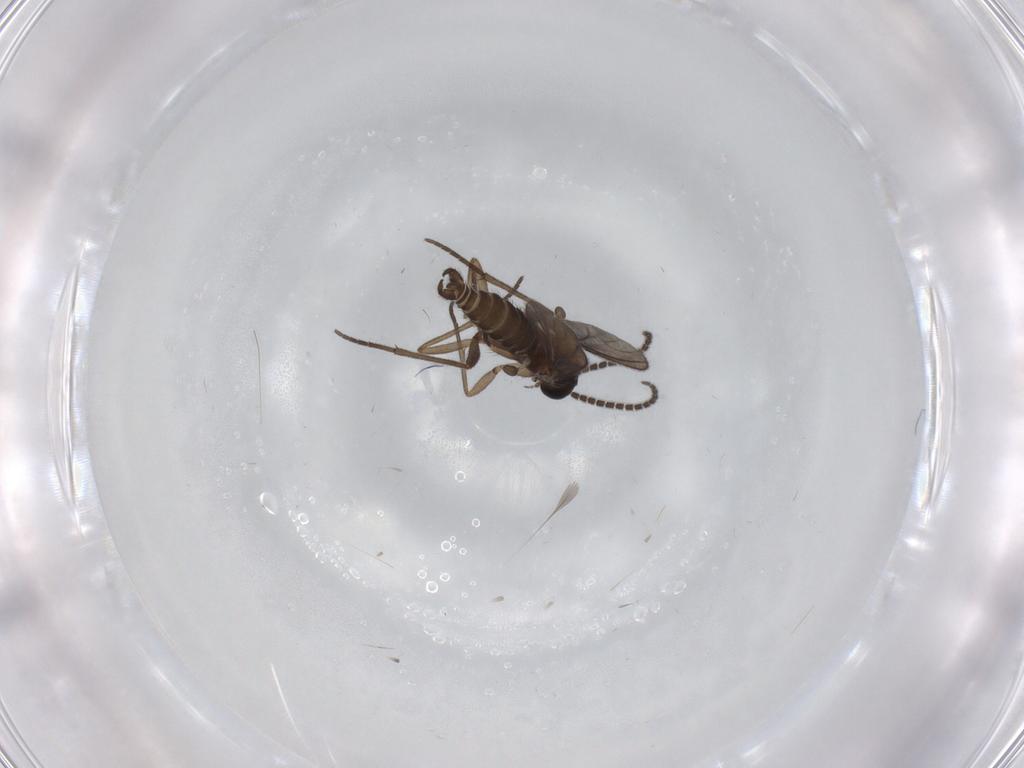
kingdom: Animalia
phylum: Arthropoda
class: Insecta
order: Diptera
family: Sciaridae
